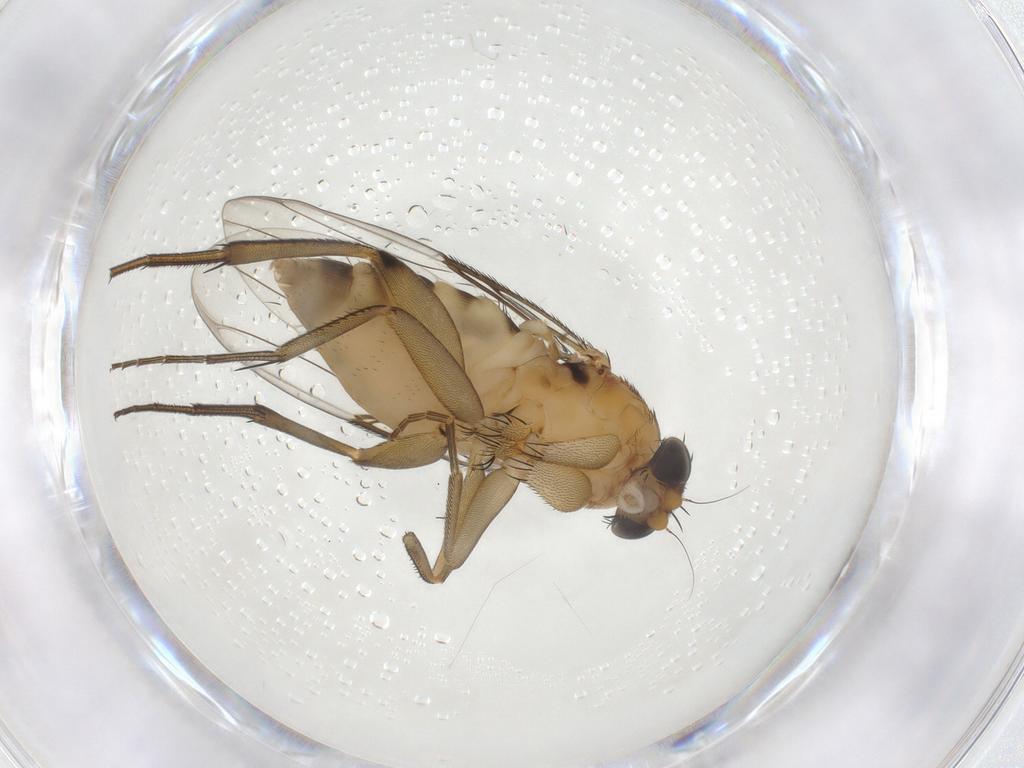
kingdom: Animalia
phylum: Arthropoda
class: Insecta
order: Diptera
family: Phoridae
